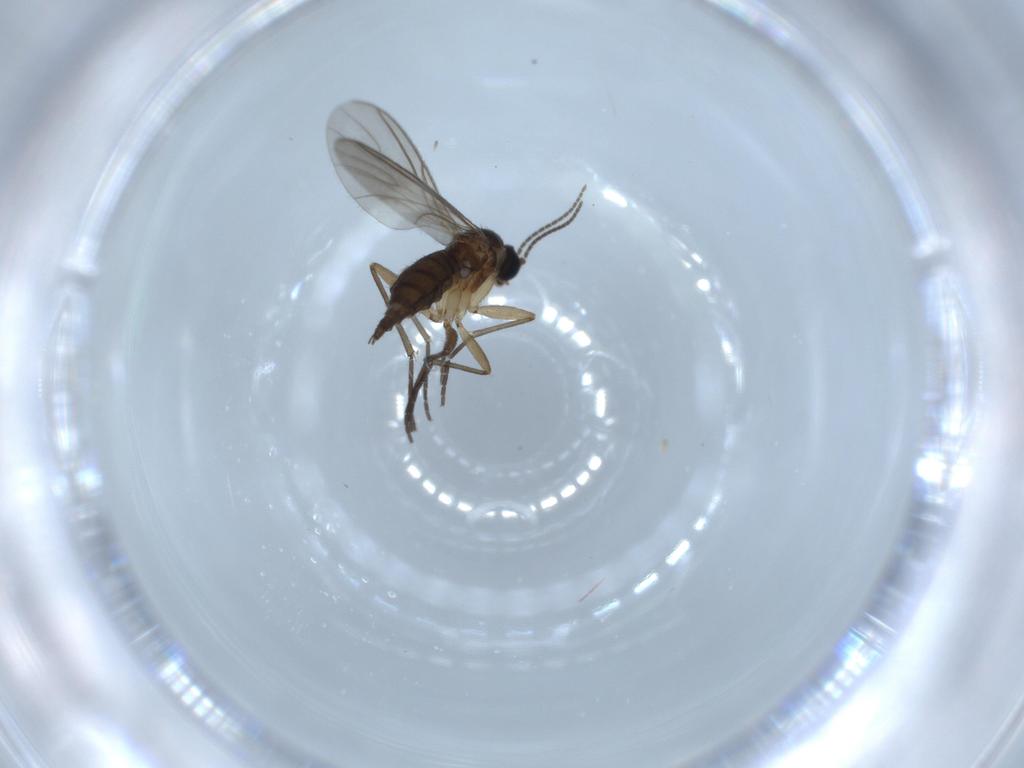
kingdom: Animalia
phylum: Arthropoda
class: Insecta
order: Diptera
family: Sciaridae
